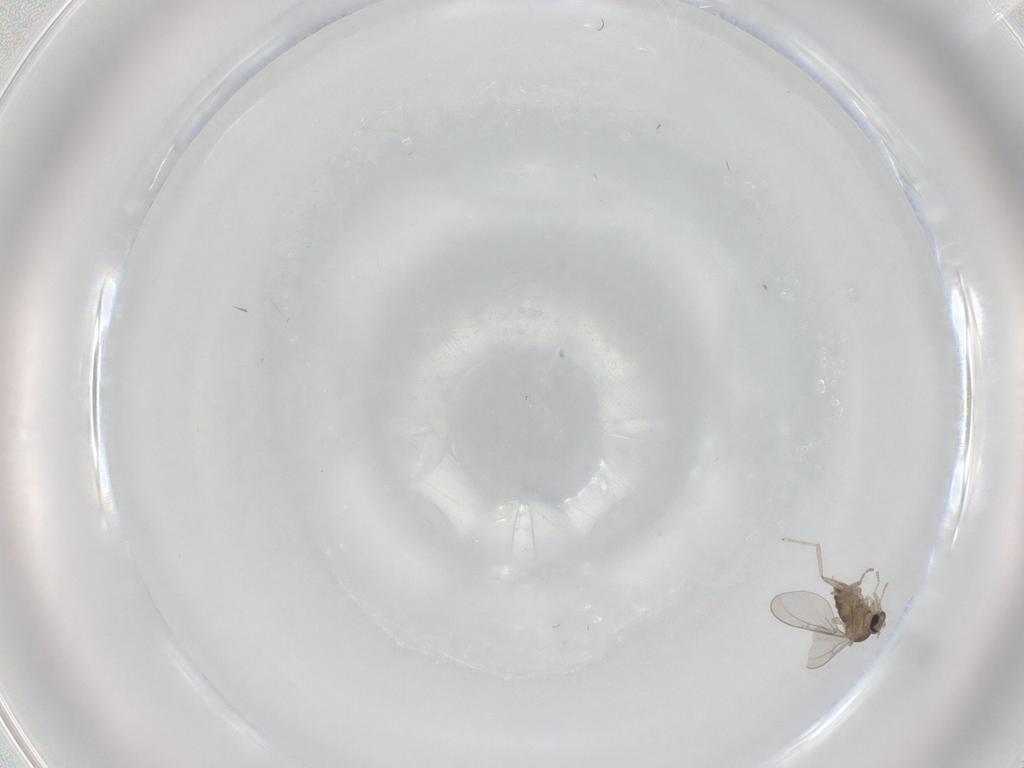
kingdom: Animalia
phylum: Arthropoda
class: Insecta
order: Diptera
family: Cecidomyiidae
